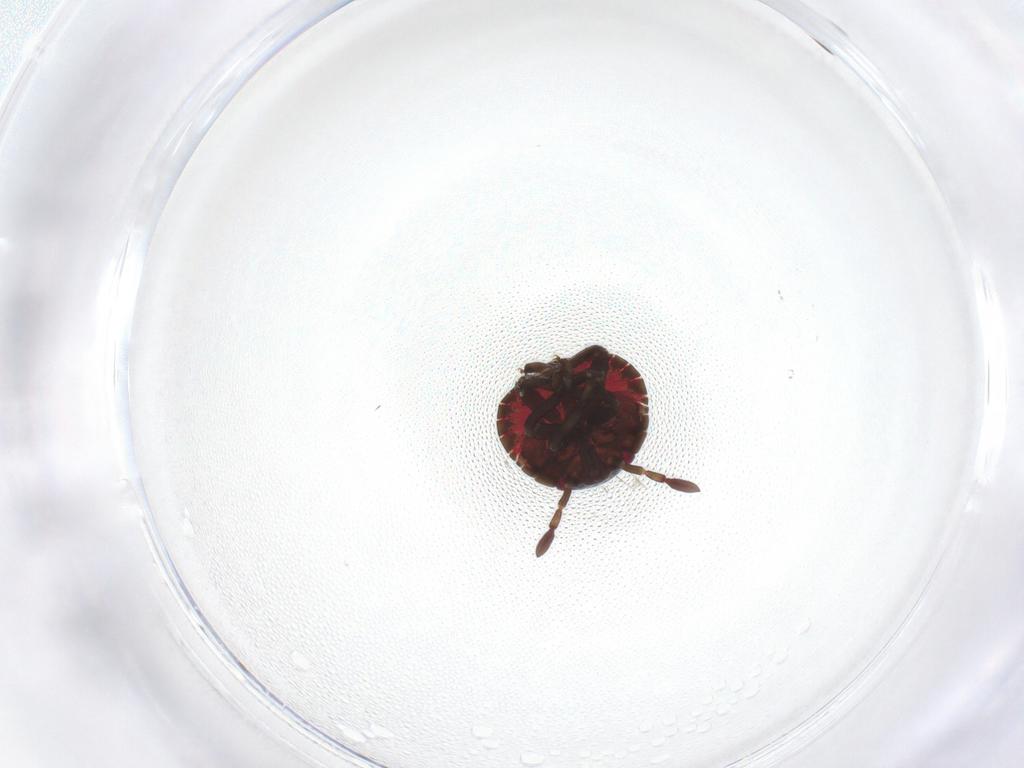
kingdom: Animalia
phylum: Arthropoda
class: Insecta
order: Hemiptera
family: Pentatomidae
